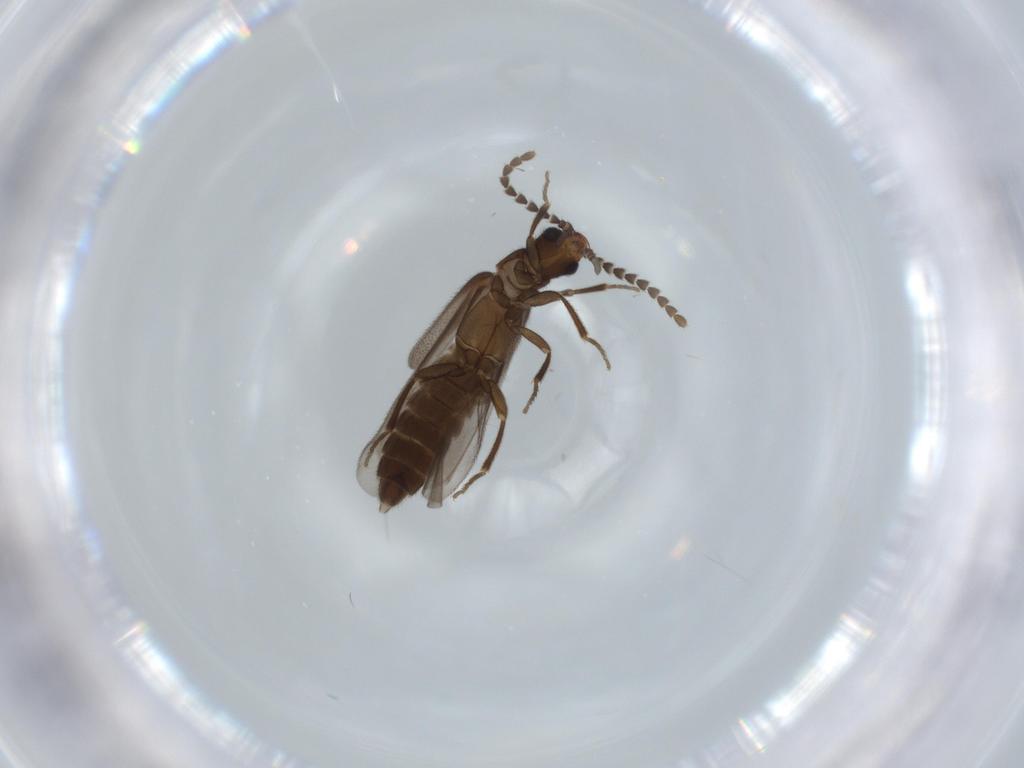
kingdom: Animalia
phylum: Arthropoda
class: Insecta
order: Coleoptera
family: Omethidae
